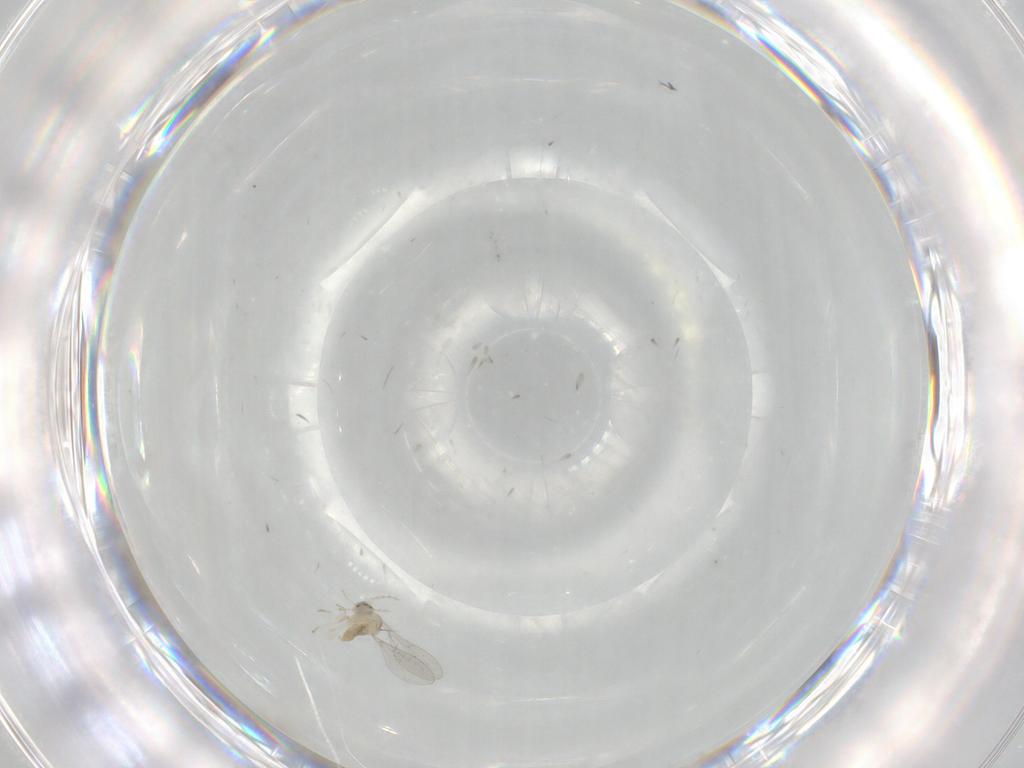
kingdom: Animalia
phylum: Arthropoda
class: Insecta
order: Diptera
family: Cecidomyiidae
